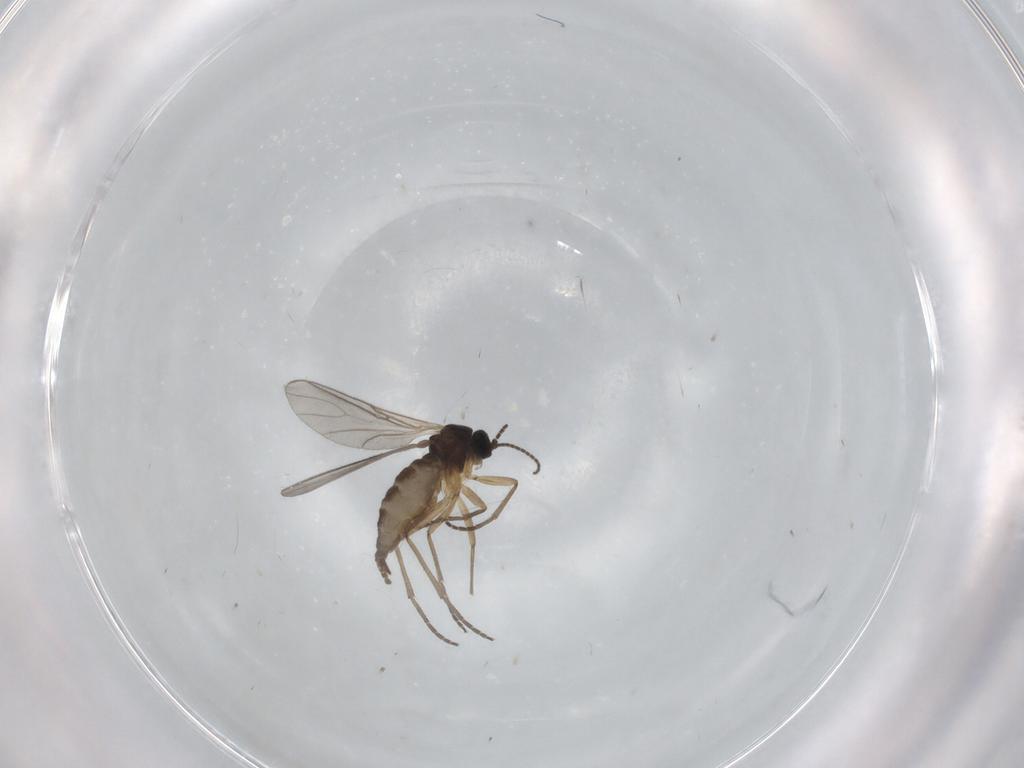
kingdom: Animalia
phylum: Arthropoda
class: Insecta
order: Diptera
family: Sciaridae
